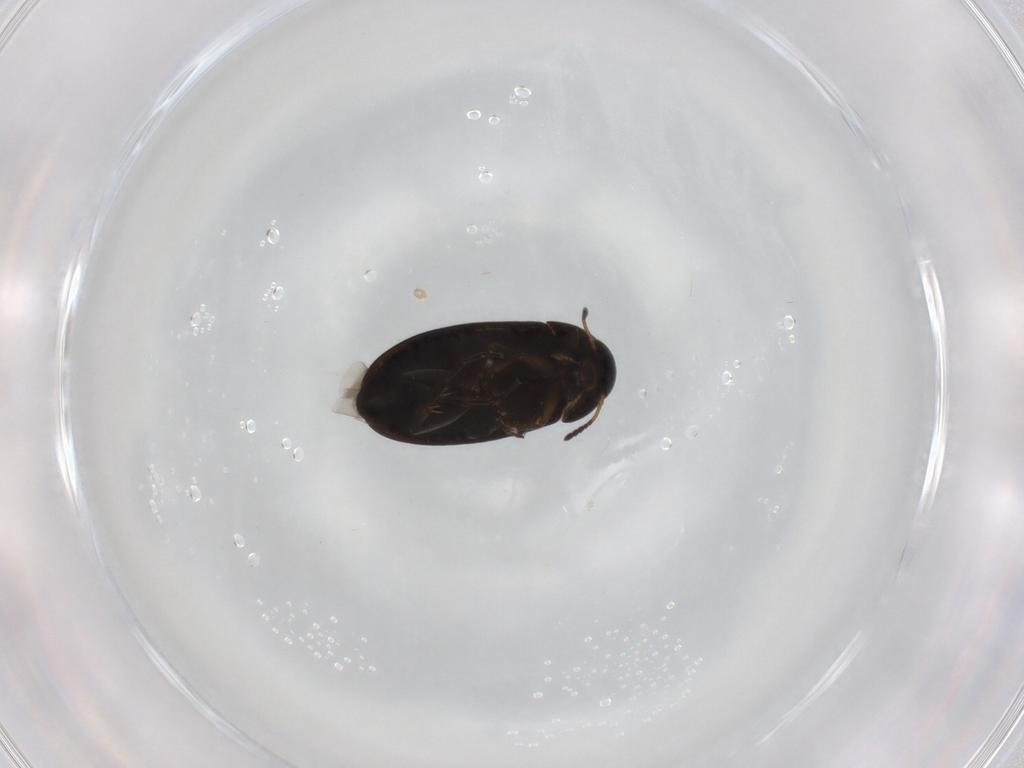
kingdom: Animalia
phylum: Arthropoda
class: Insecta
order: Coleoptera
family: Scraptiidae
